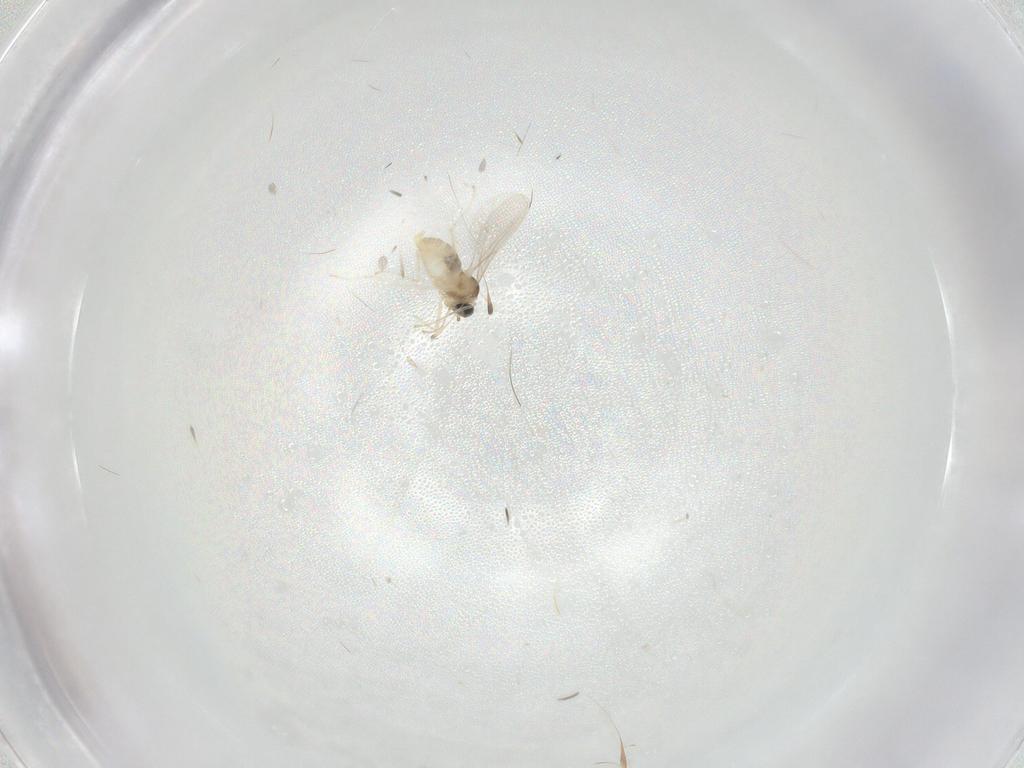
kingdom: Animalia
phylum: Arthropoda
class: Insecta
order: Diptera
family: Cecidomyiidae
